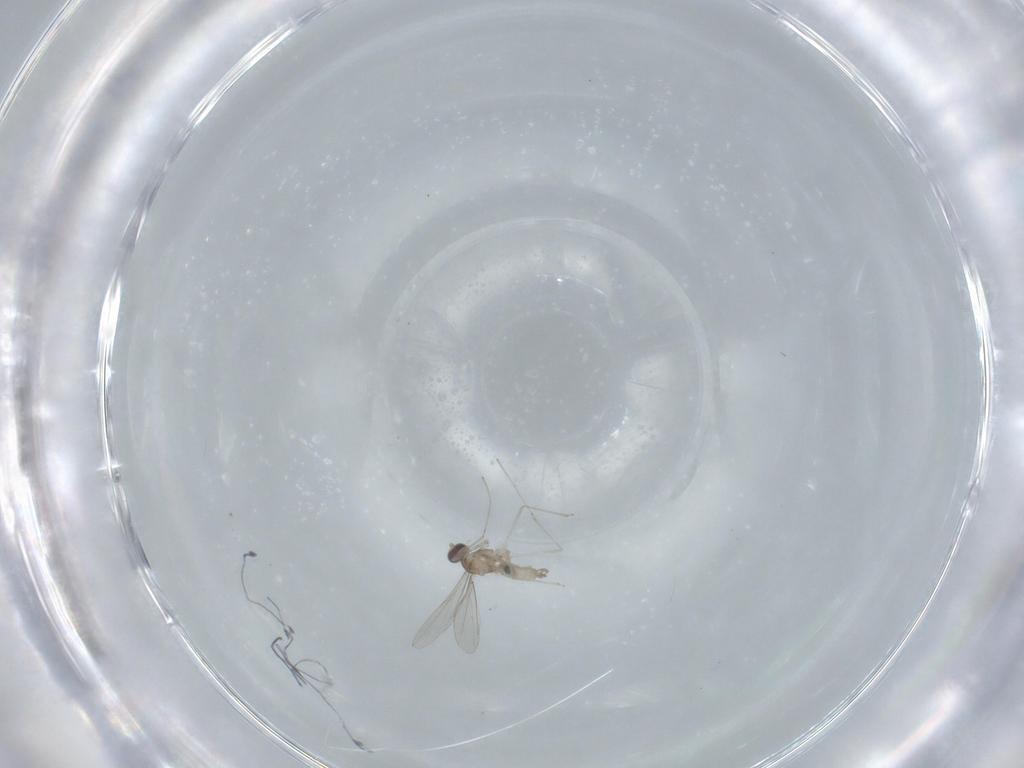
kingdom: Animalia
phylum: Arthropoda
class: Insecta
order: Diptera
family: Cecidomyiidae
